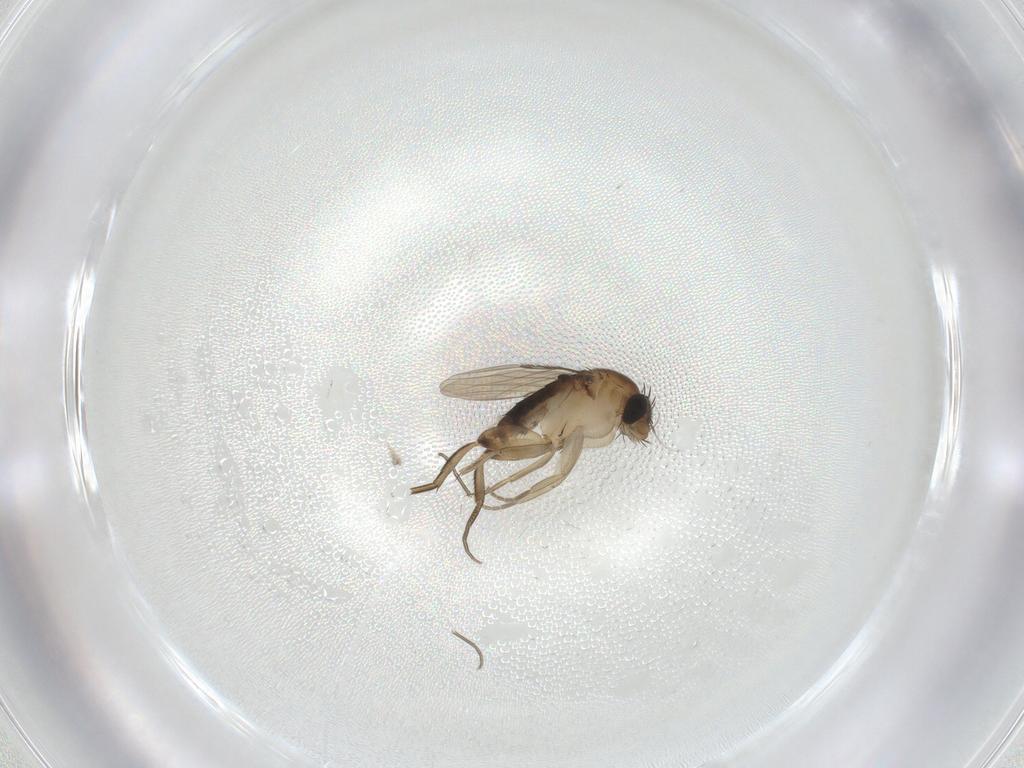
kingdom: Animalia
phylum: Arthropoda
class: Insecta
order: Diptera
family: Phoridae
